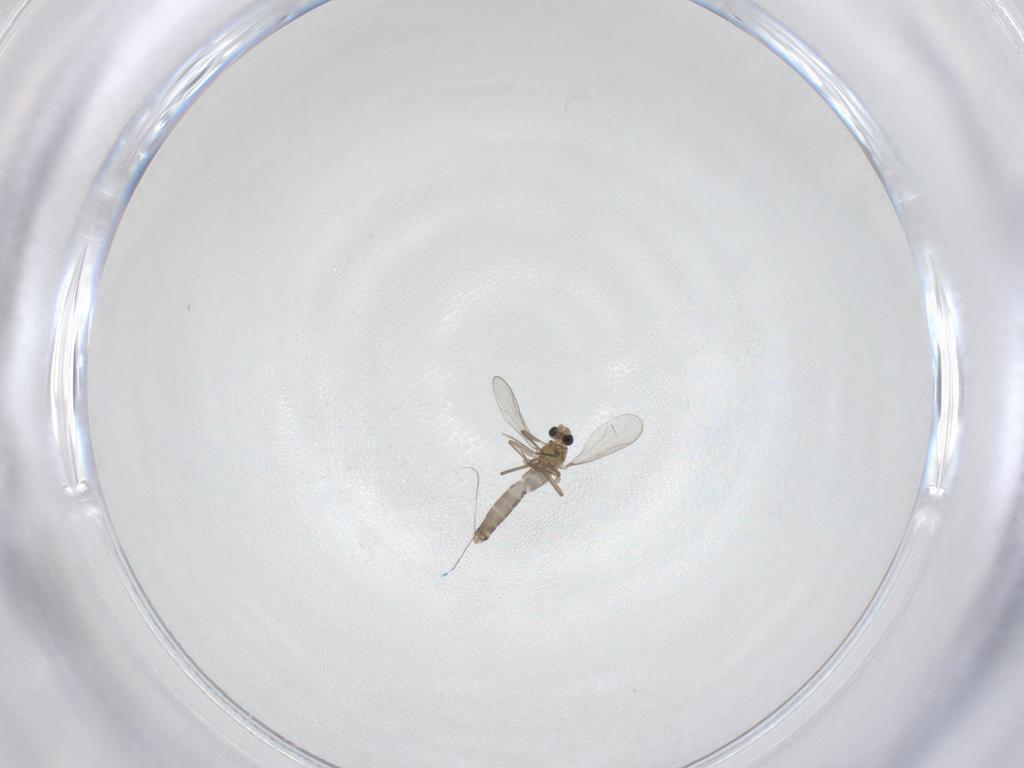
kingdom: Animalia
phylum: Arthropoda
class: Insecta
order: Diptera
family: Chironomidae
